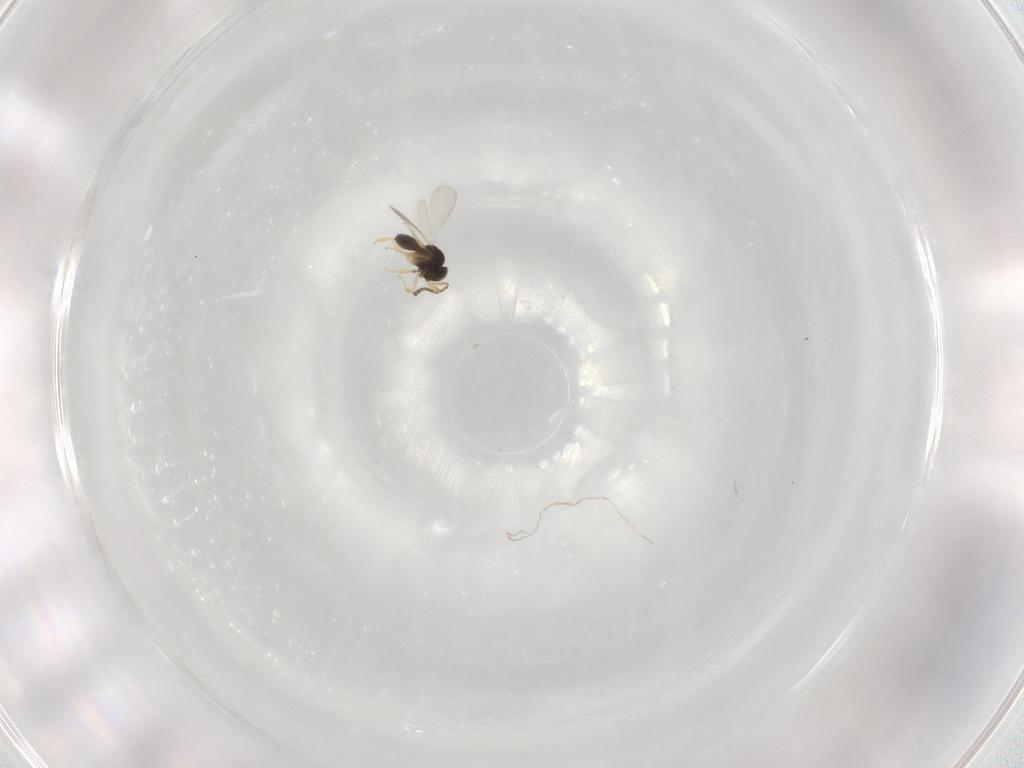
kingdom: Animalia
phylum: Arthropoda
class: Insecta
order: Hymenoptera
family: Scelionidae
